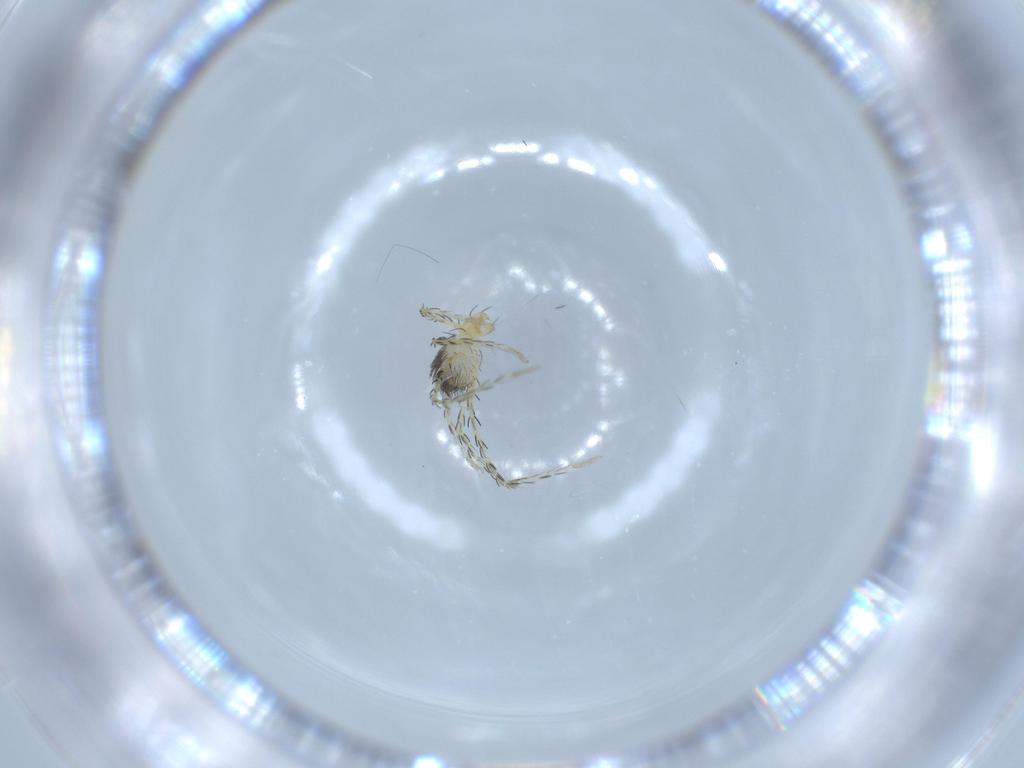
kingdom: Animalia
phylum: Arthropoda
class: Arachnida
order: Trombidiformes
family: Erythraeidae
